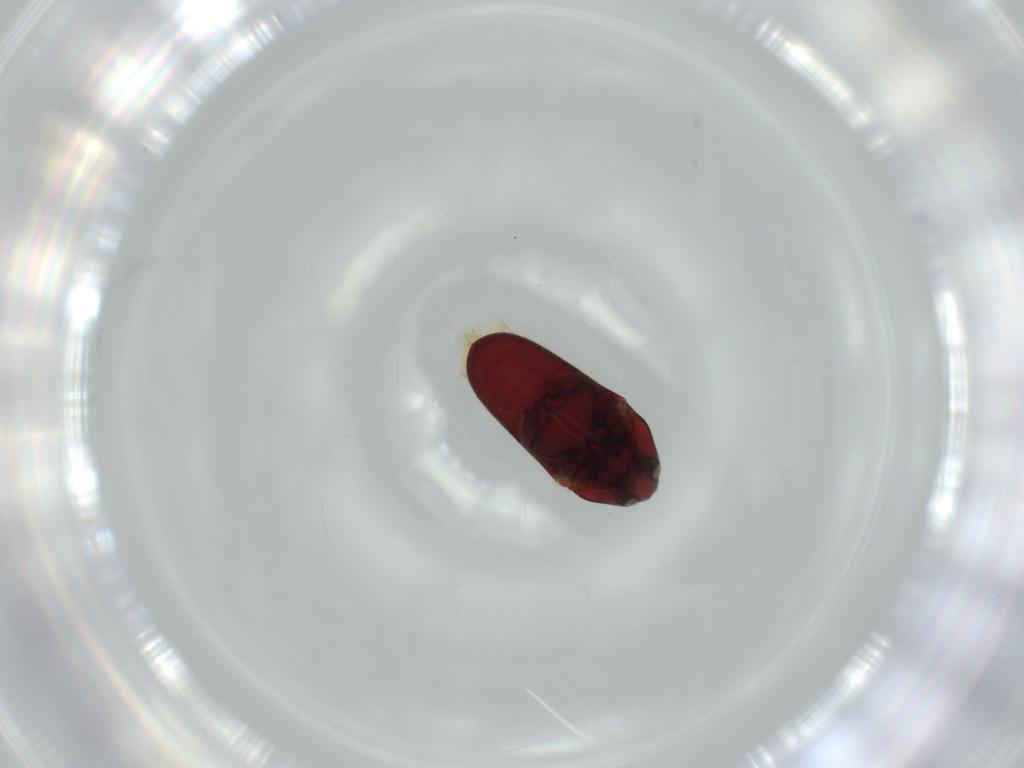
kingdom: Animalia
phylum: Arthropoda
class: Insecta
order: Coleoptera
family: Throscidae
